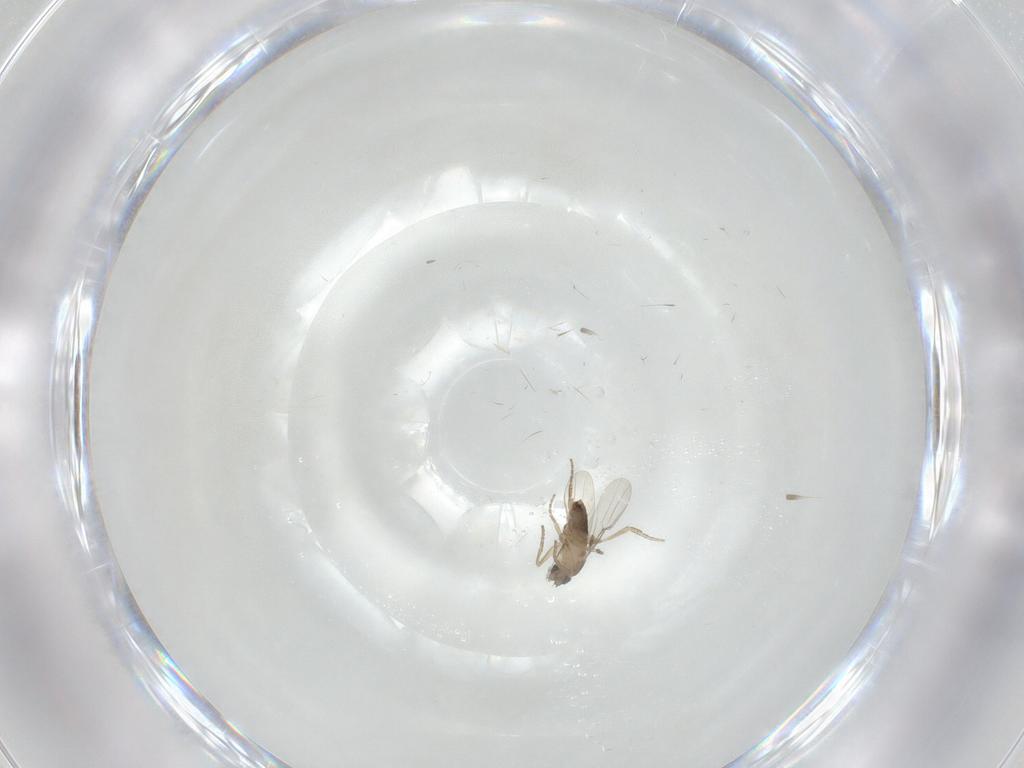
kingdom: Animalia
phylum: Arthropoda
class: Insecta
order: Diptera
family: Phoridae
